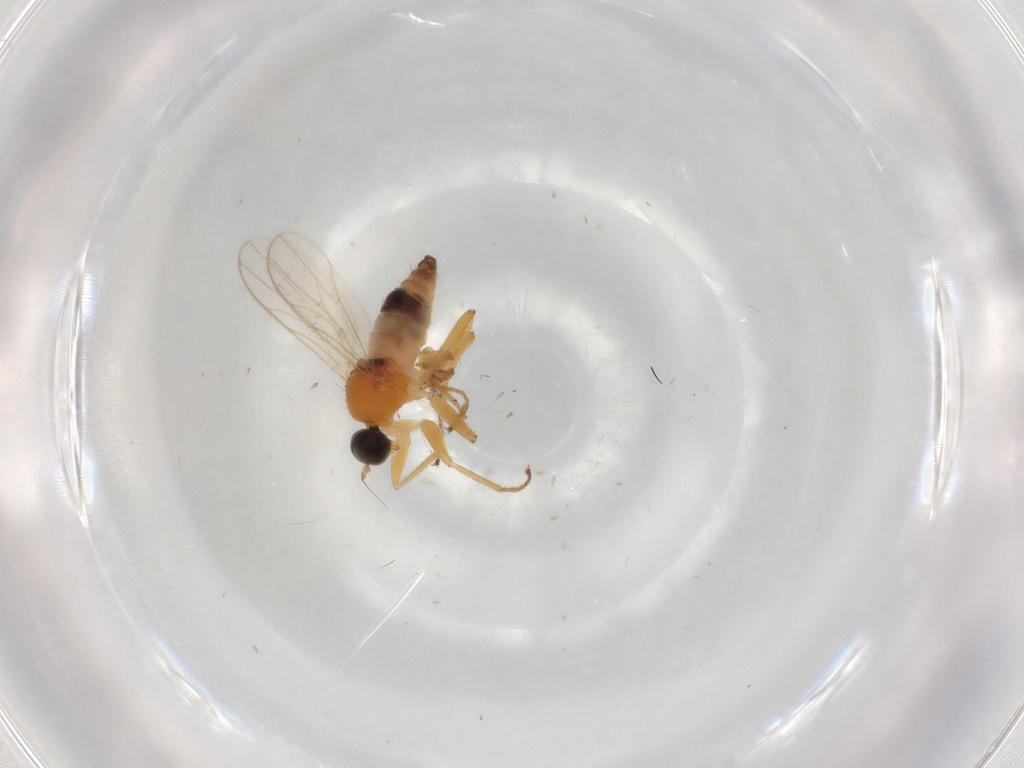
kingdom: Animalia
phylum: Arthropoda
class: Insecta
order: Diptera
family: Hybotidae
